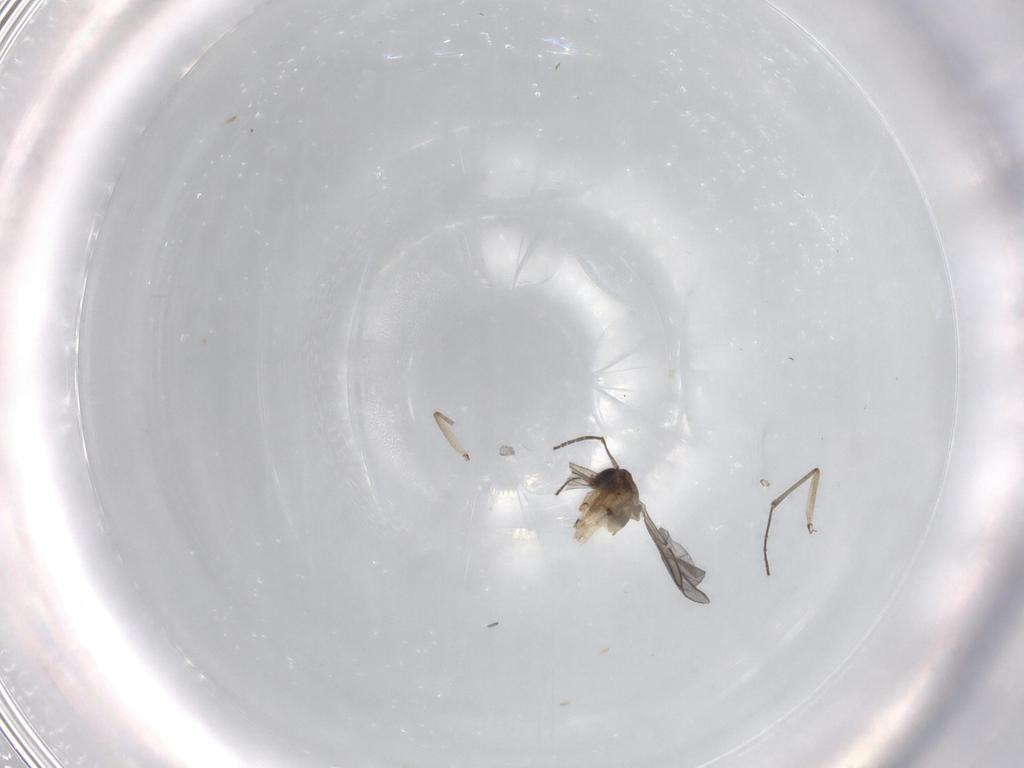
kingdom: Animalia
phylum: Arthropoda
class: Insecta
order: Diptera
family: Sciaridae
